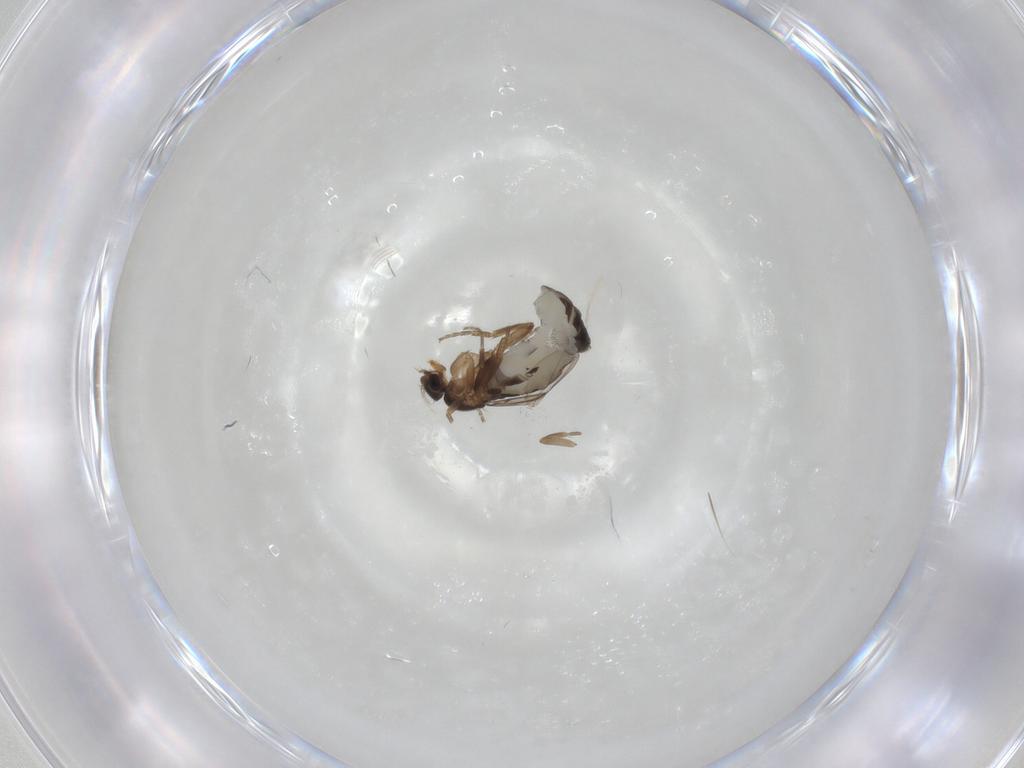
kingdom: Animalia
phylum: Arthropoda
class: Insecta
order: Diptera
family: Phoridae
